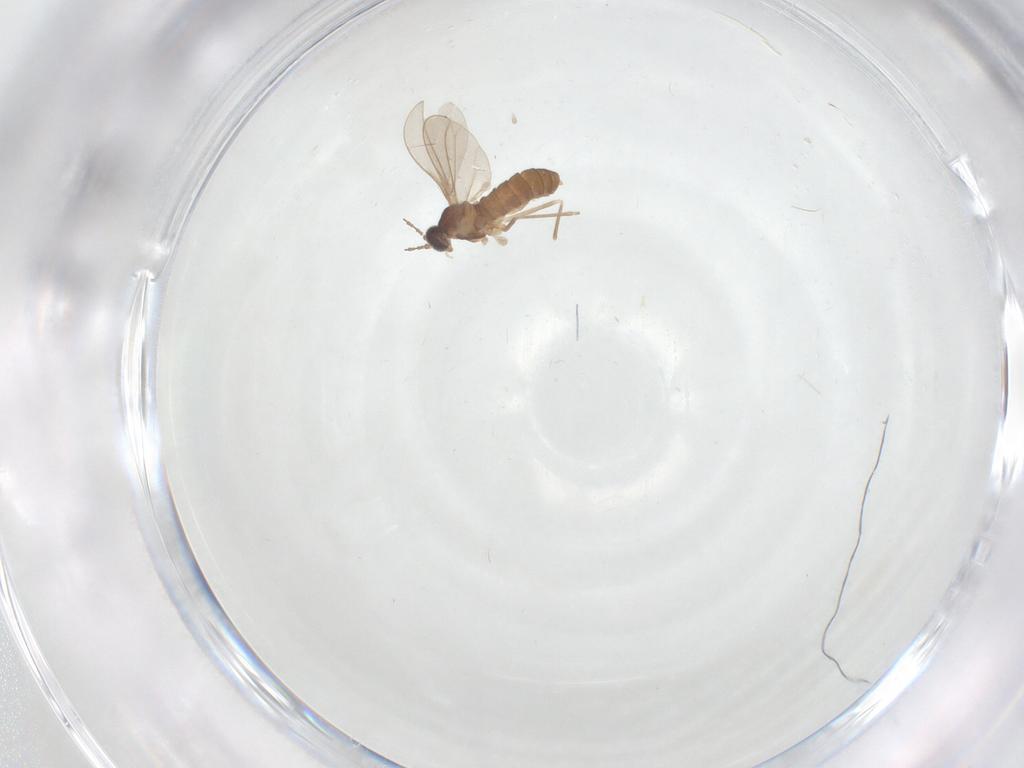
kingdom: Animalia
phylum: Arthropoda
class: Insecta
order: Diptera
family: Cecidomyiidae
